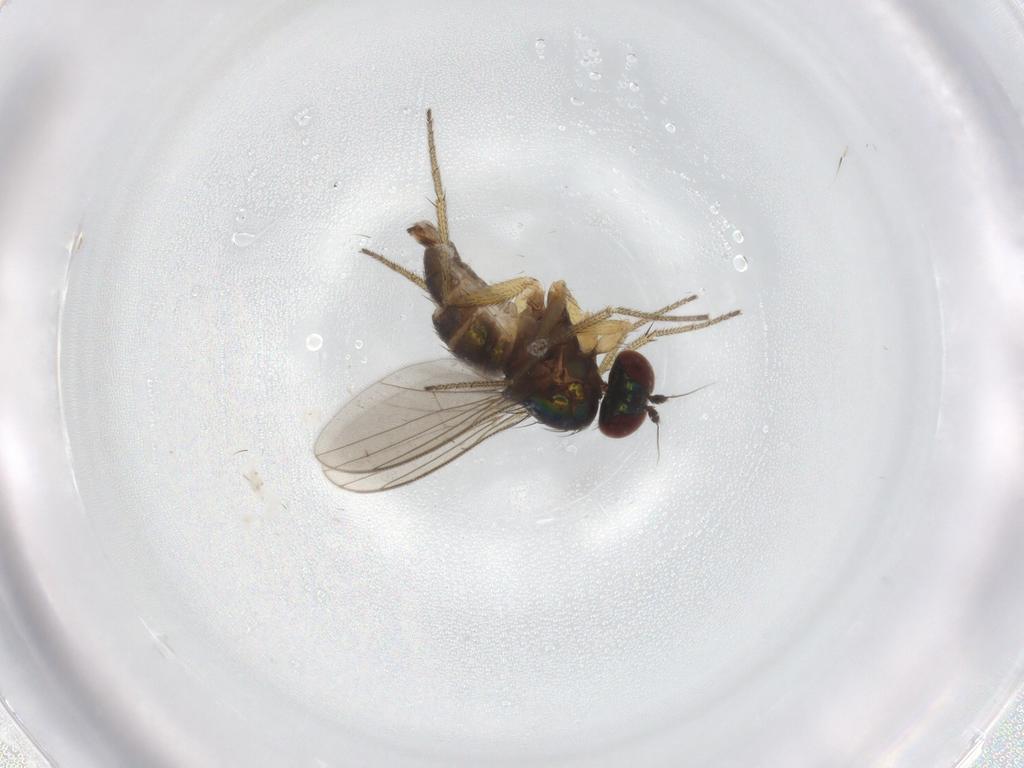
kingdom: Animalia
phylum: Arthropoda
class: Insecta
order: Diptera
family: Chironomidae
